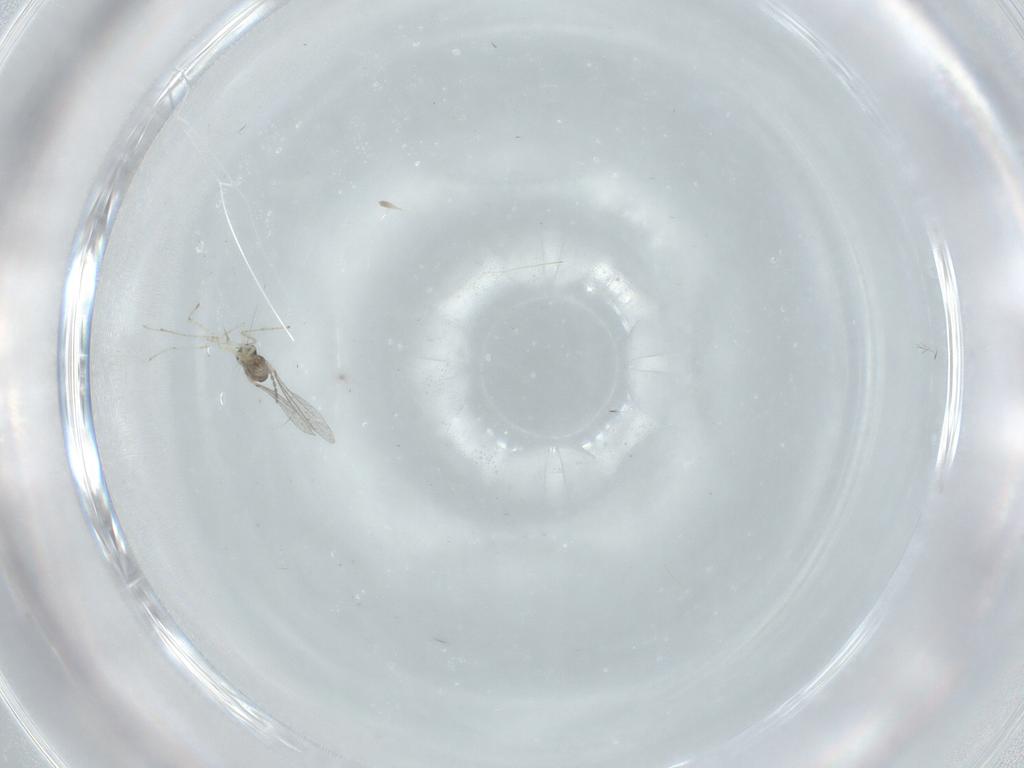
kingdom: Animalia
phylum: Arthropoda
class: Insecta
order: Diptera
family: Cecidomyiidae
